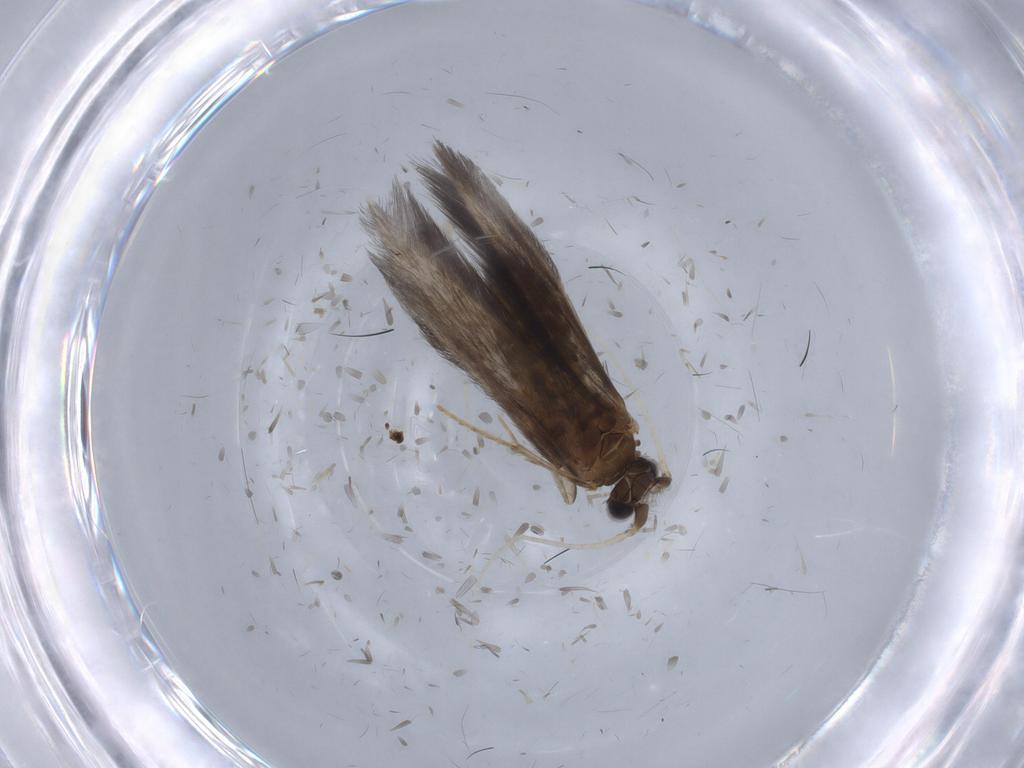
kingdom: Animalia
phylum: Arthropoda
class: Insecta
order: Trichoptera
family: Hydroptilidae
